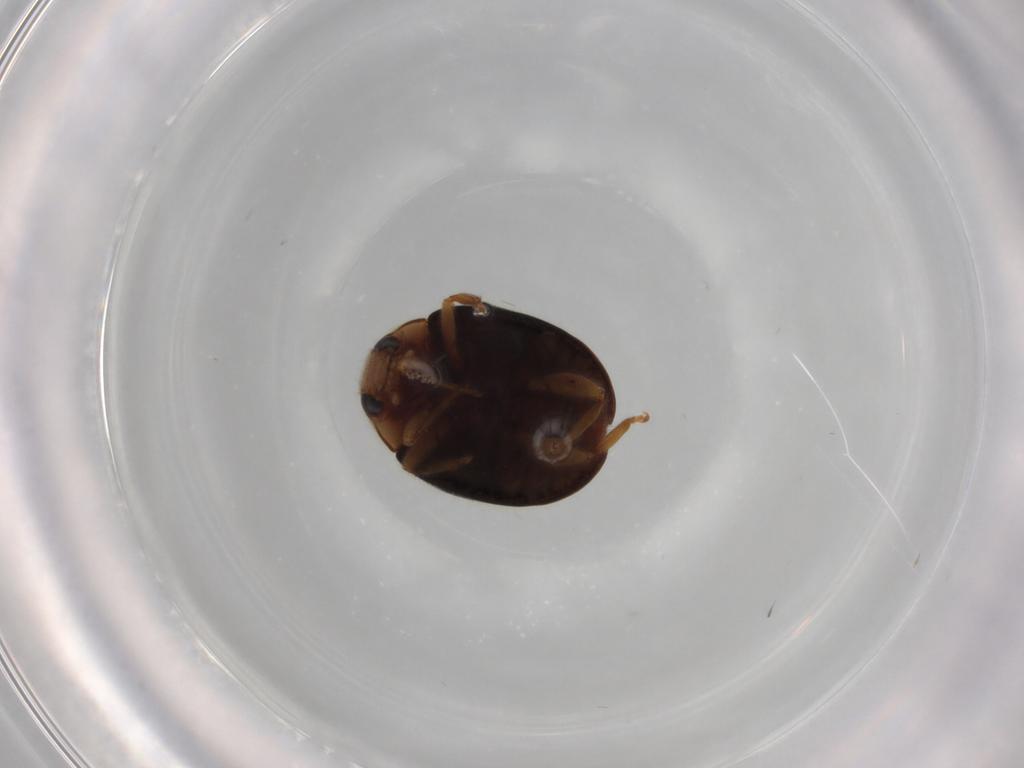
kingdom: Animalia
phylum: Arthropoda
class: Insecta
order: Coleoptera
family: Coccinellidae
